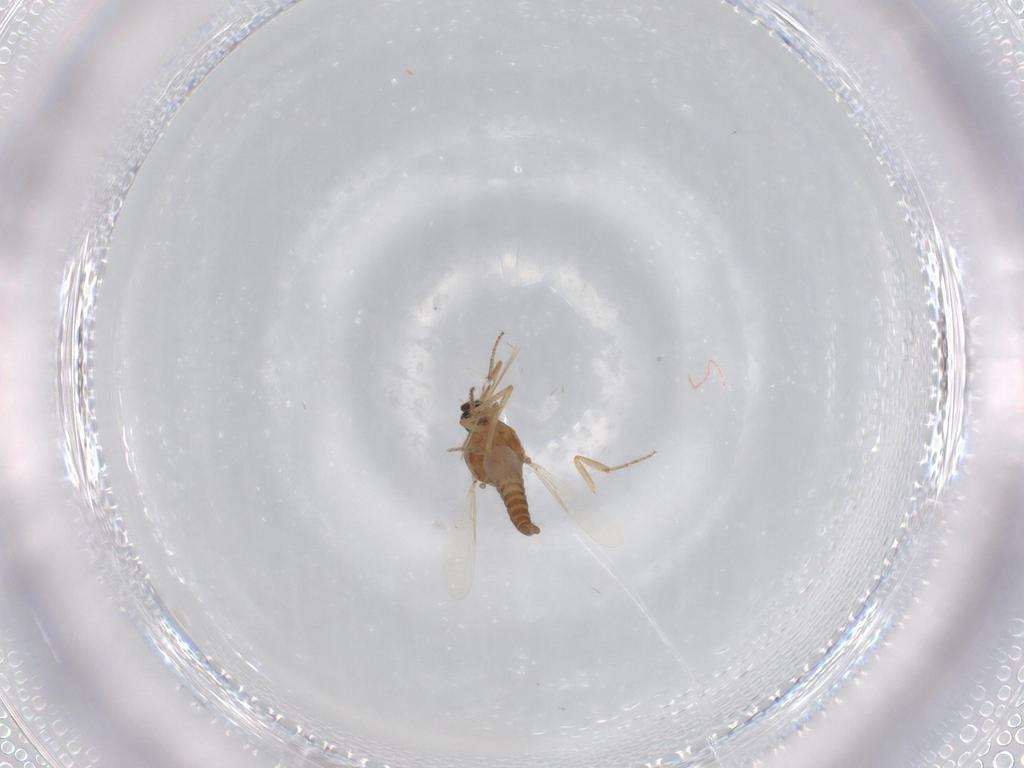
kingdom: Animalia
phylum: Arthropoda
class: Insecta
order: Diptera
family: Ceratopogonidae
